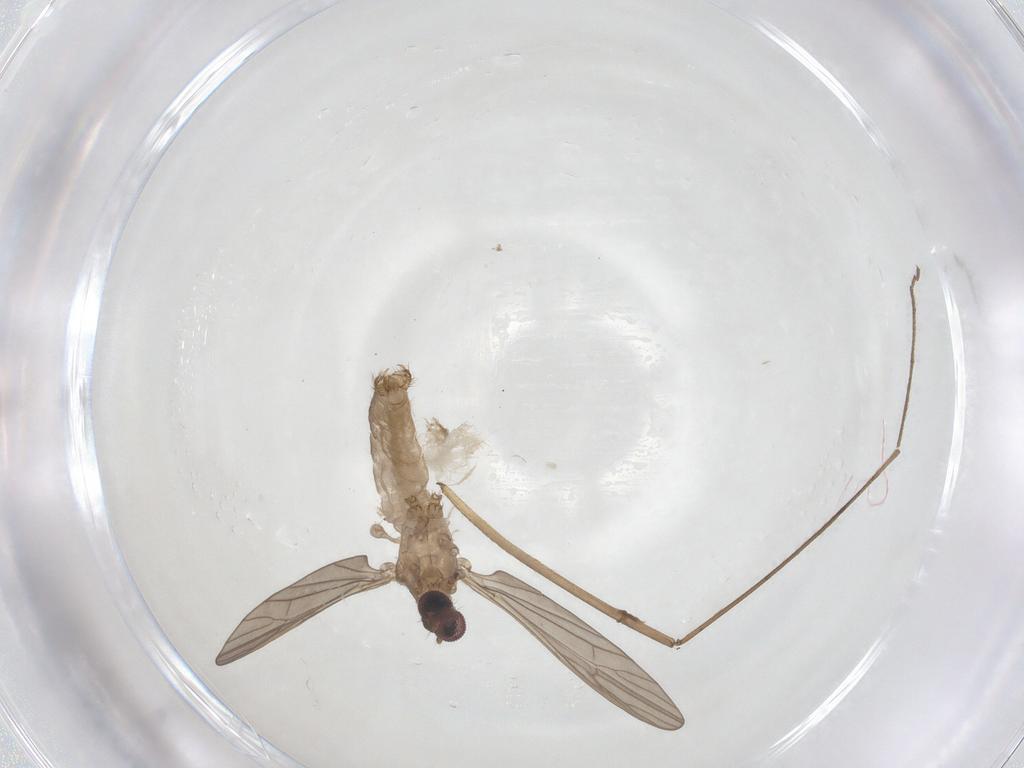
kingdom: Animalia
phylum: Arthropoda
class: Insecta
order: Diptera
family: Limoniidae
